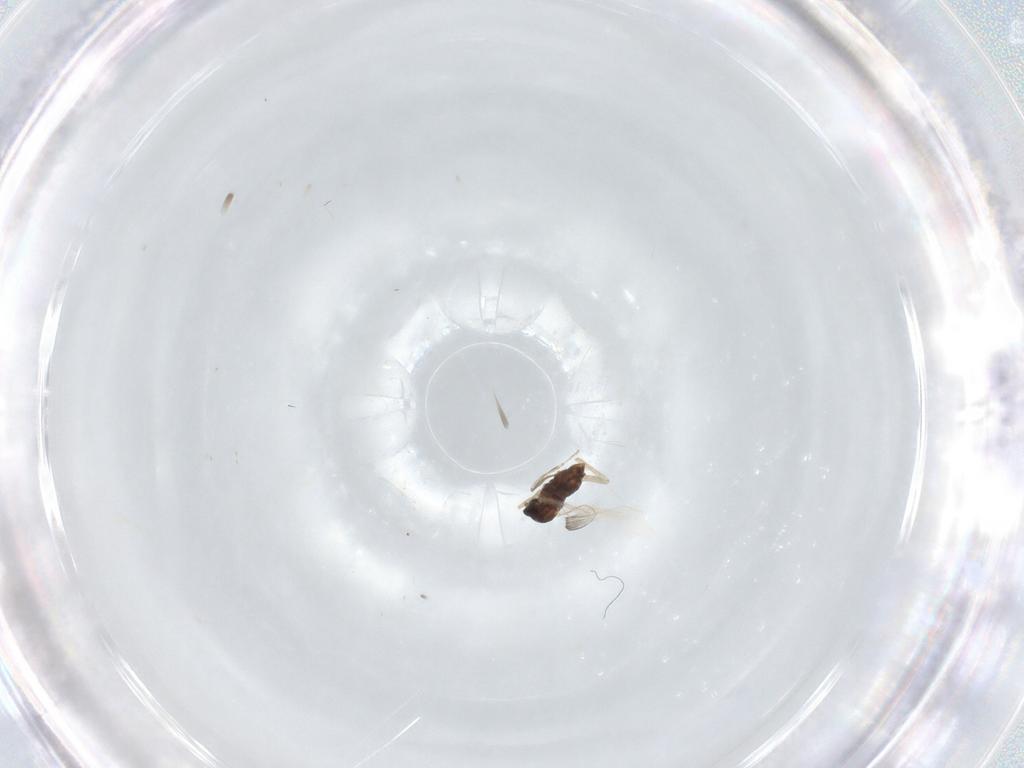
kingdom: Animalia
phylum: Arthropoda
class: Insecta
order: Diptera
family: Cecidomyiidae
